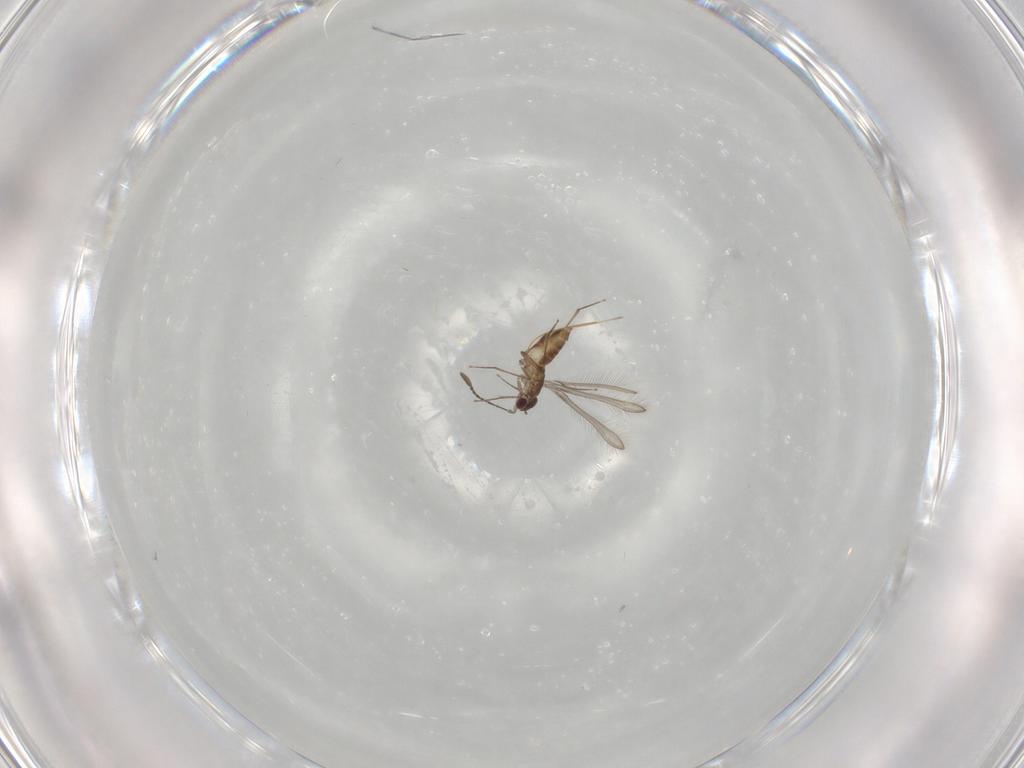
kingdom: Animalia
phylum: Arthropoda
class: Insecta
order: Hymenoptera
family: Mymaridae
